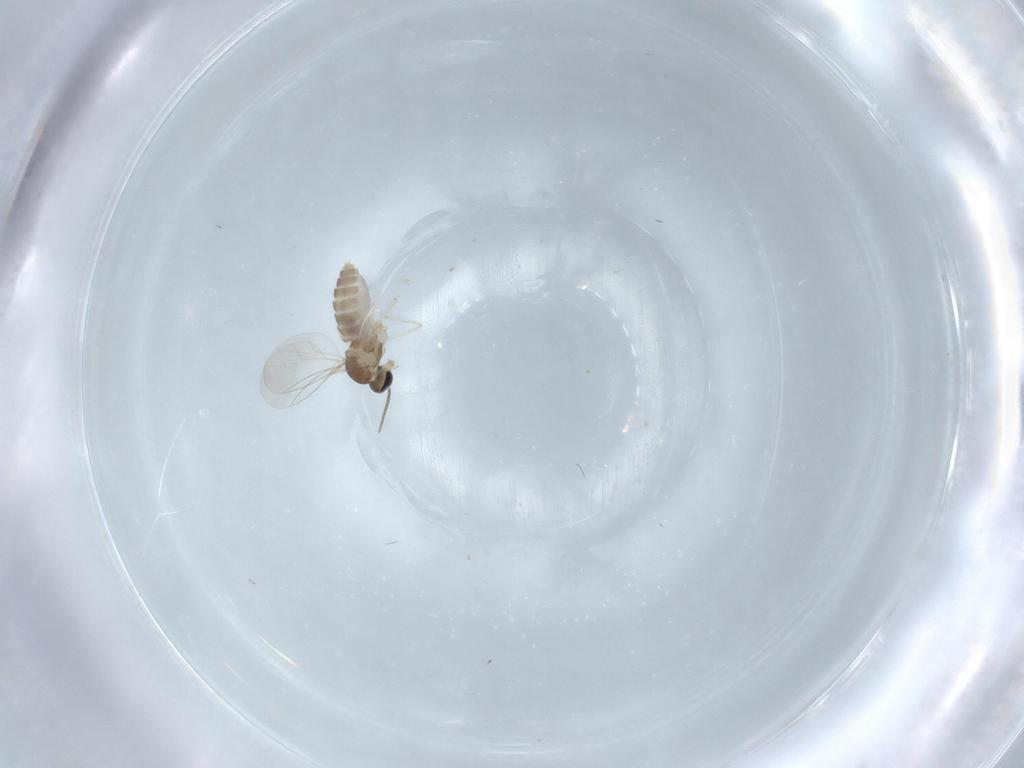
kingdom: Animalia
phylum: Arthropoda
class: Insecta
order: Diptera
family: Cecidomyiidae
